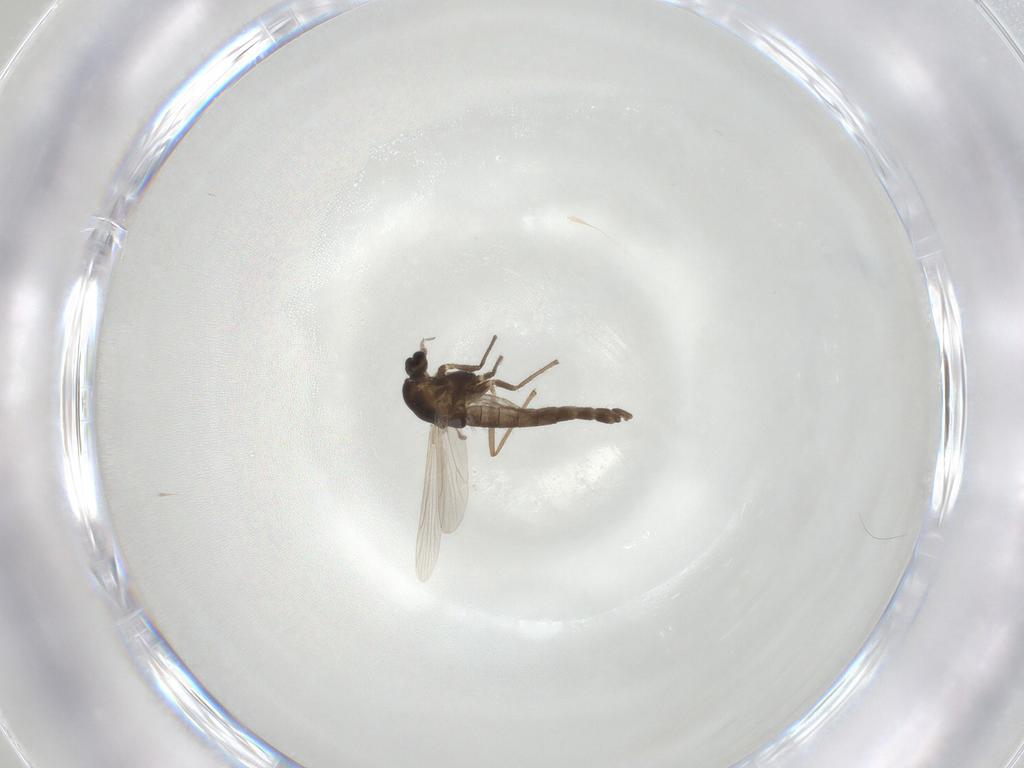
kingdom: Animalia
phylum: Arthropoda
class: Insecta
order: Diptera
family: Chironomidae
